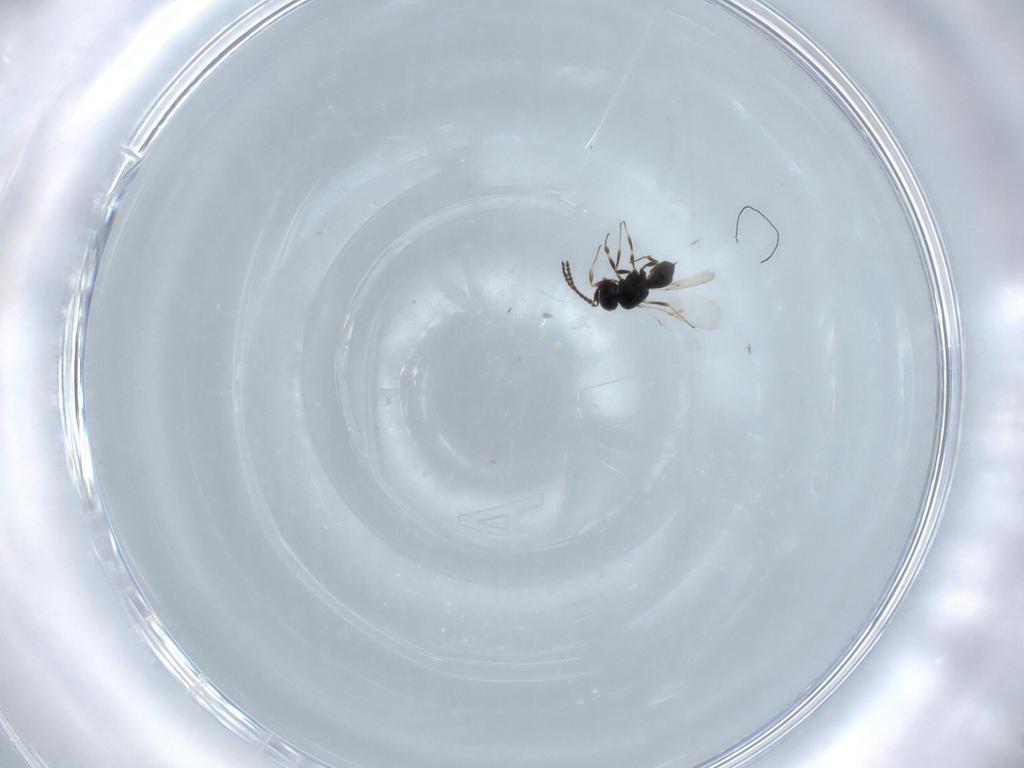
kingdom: Animalia
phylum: Arthropoda
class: Insecta
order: Hymenoptera
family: Scelionidae
